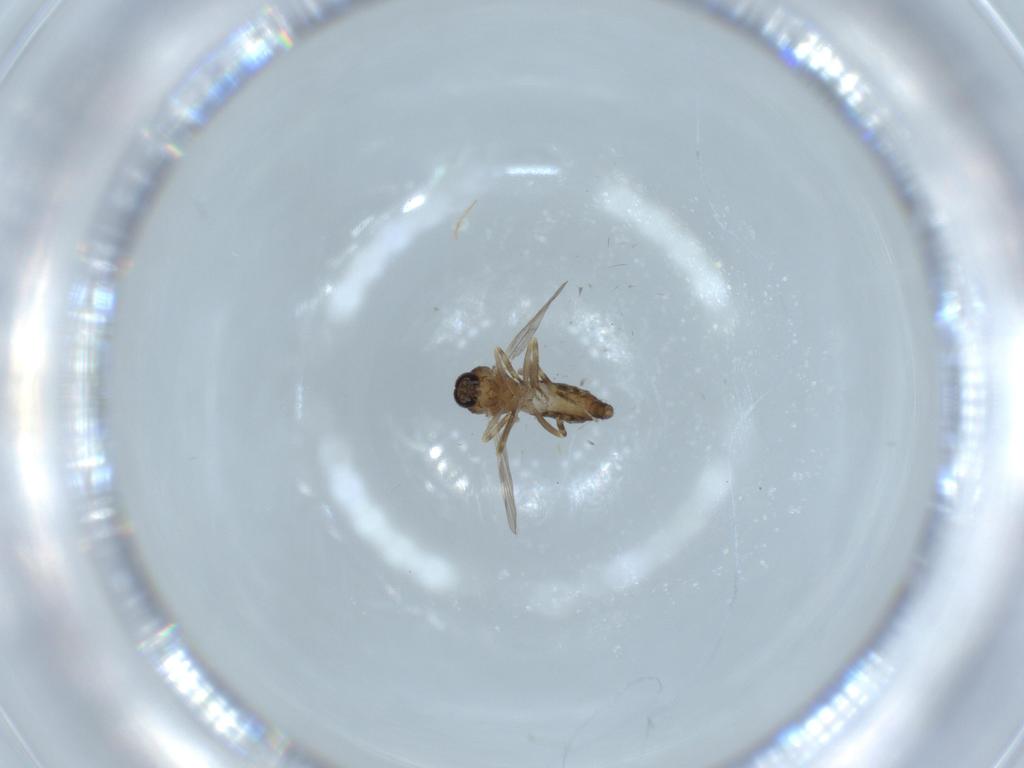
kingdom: Animalia
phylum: Arthropoda
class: Insecta
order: Diptera
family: Ceratopogonidae
